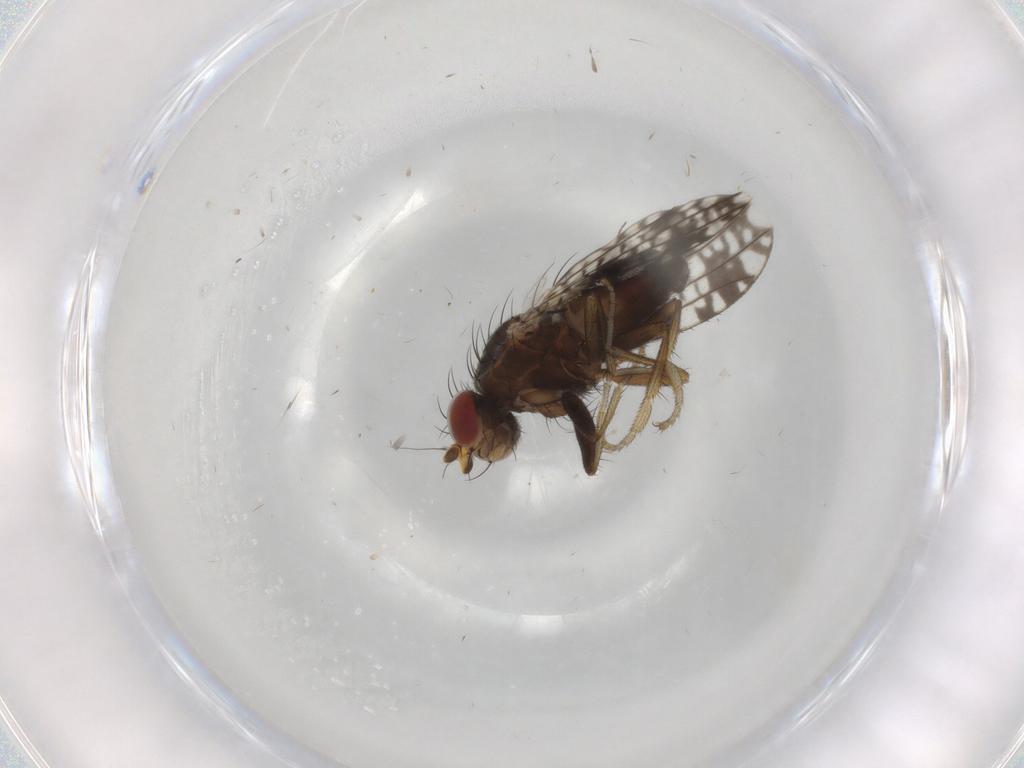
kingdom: Animalia
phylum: Arthropoda
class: Insecta
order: Diptera
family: Tephritidae
